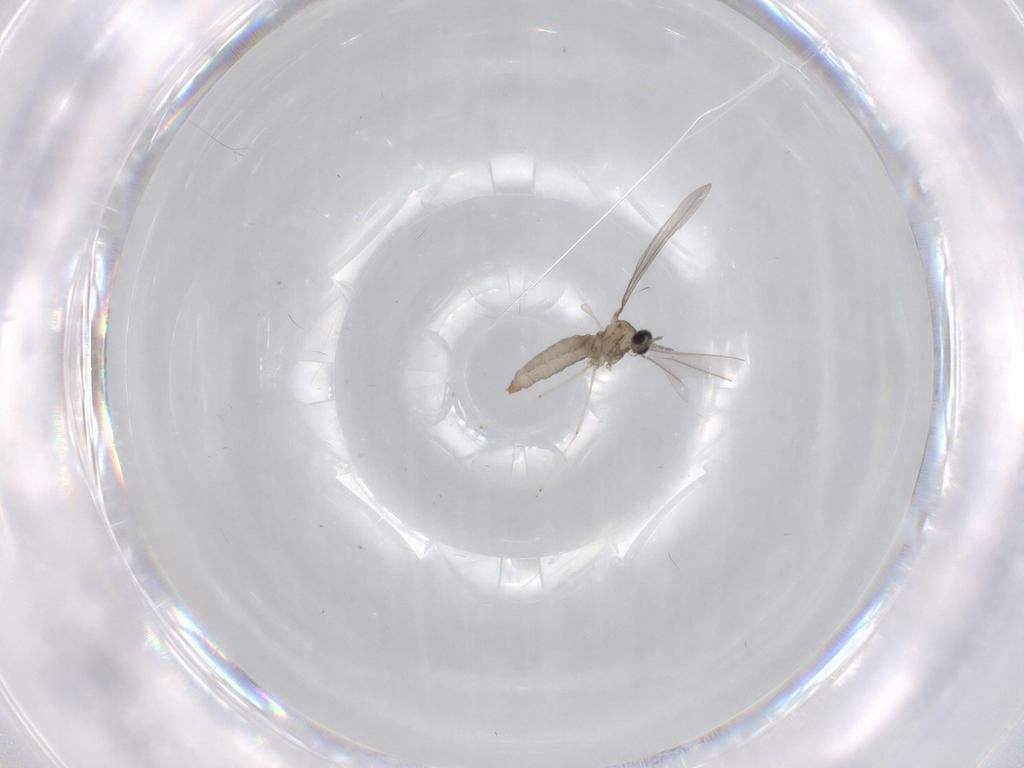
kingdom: Animalia
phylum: Arthropoda
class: Insecta
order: Diptera
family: Cecidomyiidae
